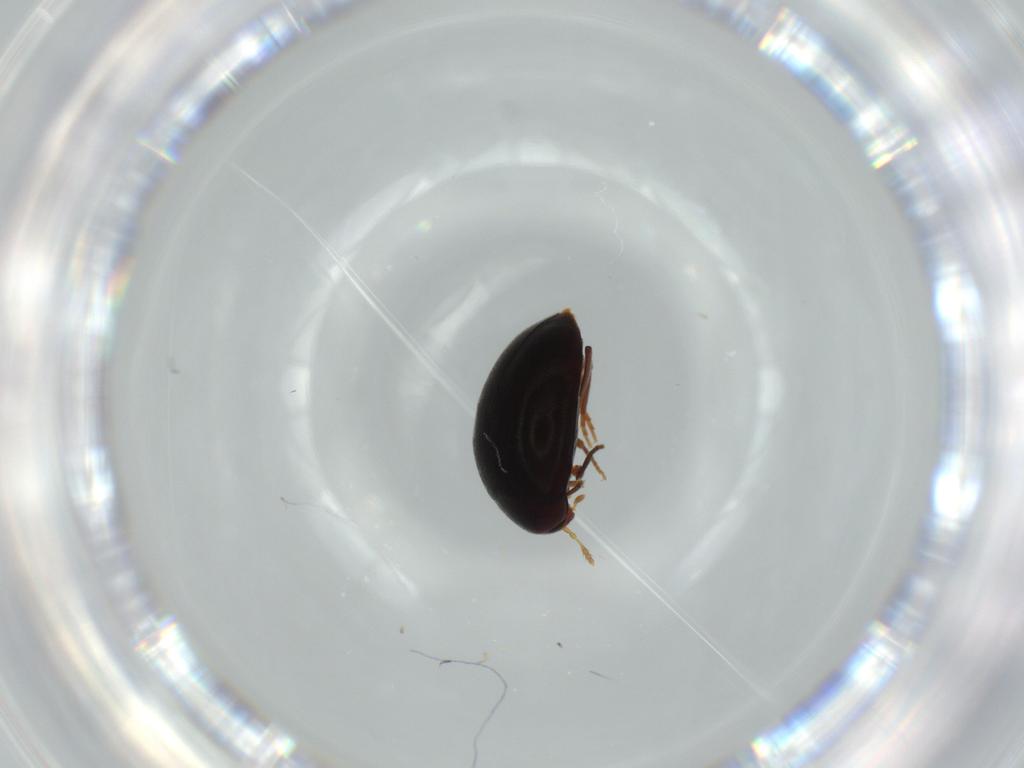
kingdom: Animalia
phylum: Arthropoda
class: Insecta
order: Coleoptera
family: Melandryidae
